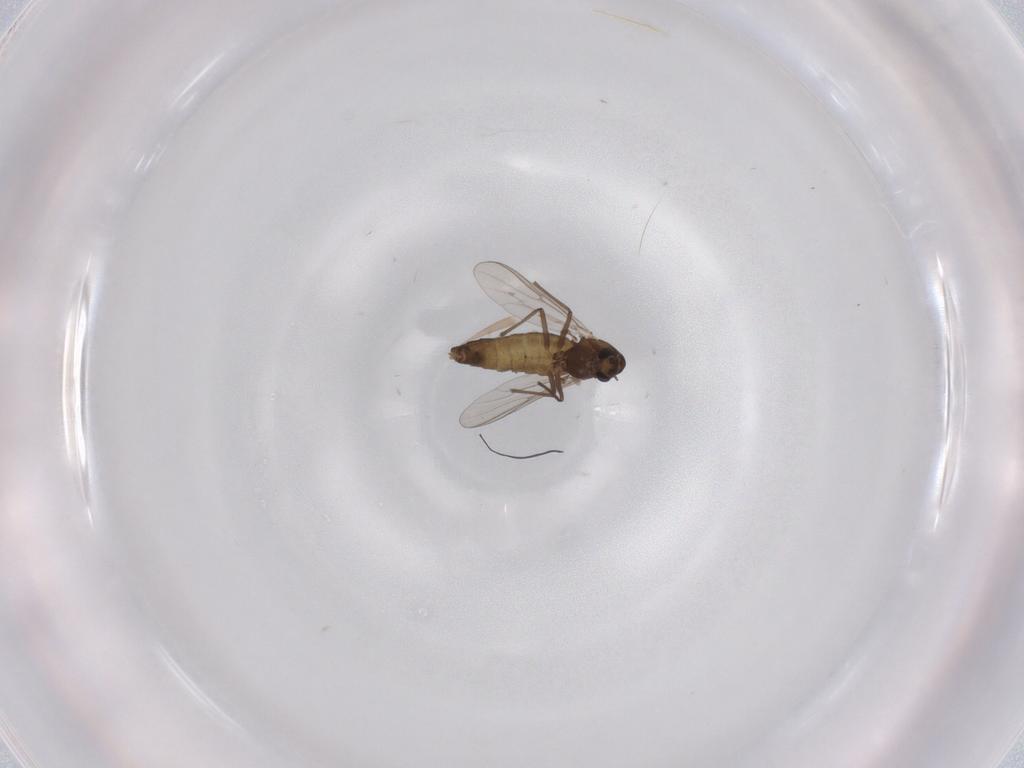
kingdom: Animalia
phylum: Arthropoda
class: Insecta
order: Diptera
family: Chironomidae
